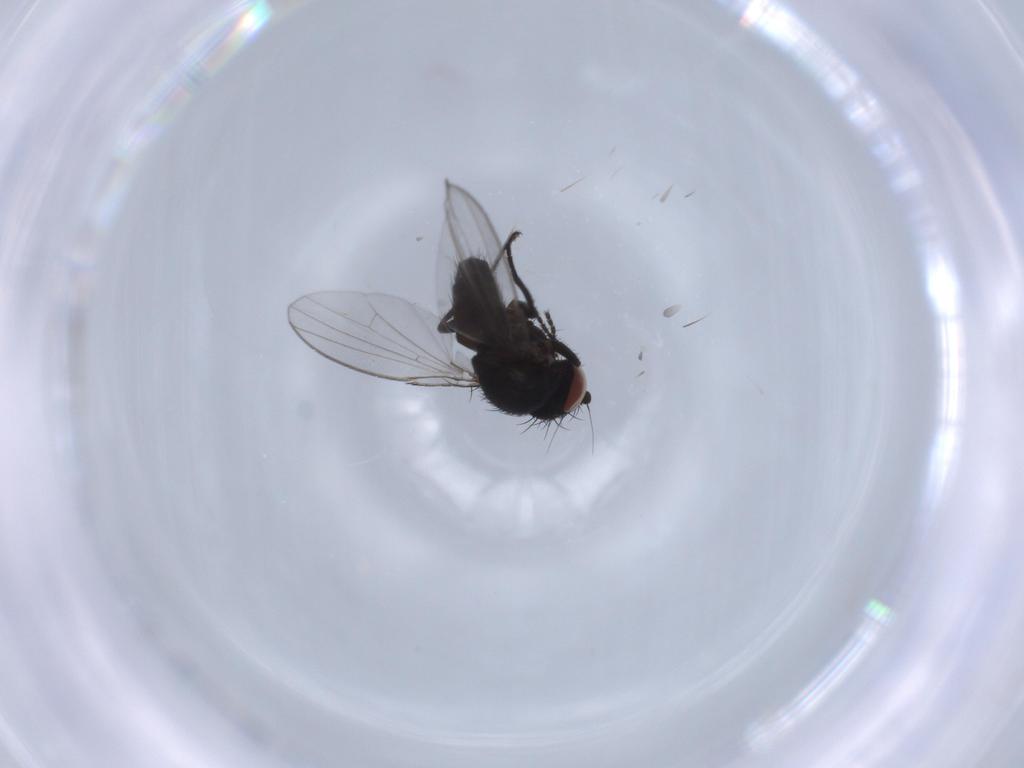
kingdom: Animalia
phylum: Arthropoda
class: Insecta
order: Diptera
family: Milichiidae
